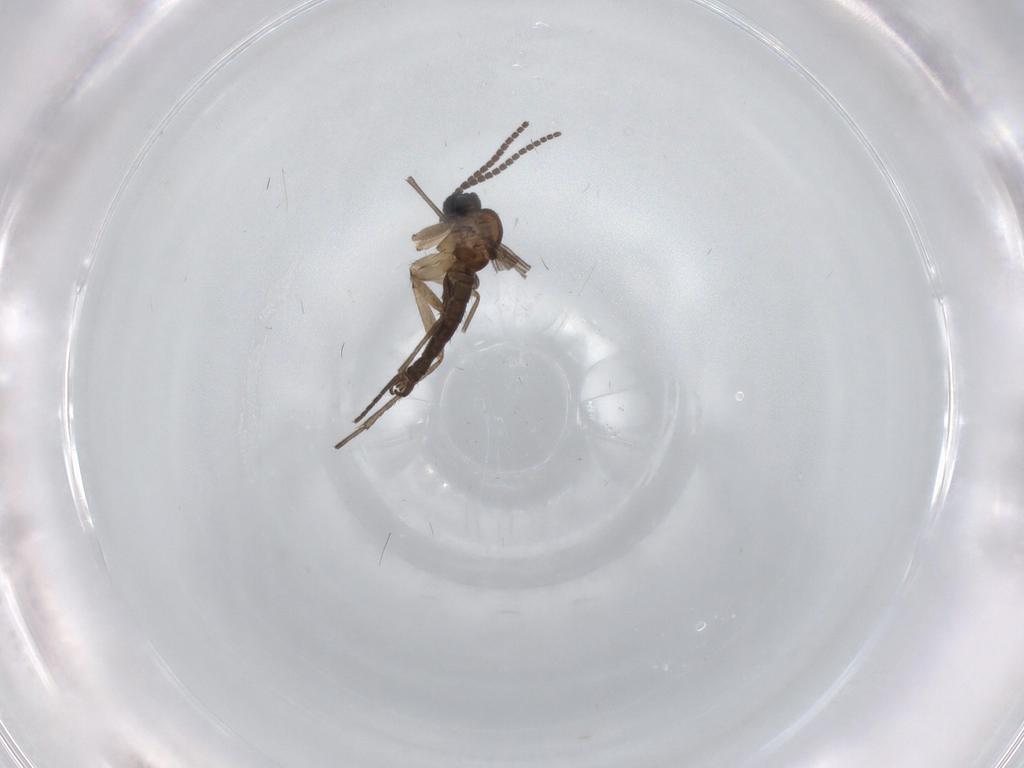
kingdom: Animalia
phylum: Arthropoda
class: Insecta
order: Diptera
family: Sciaridae
